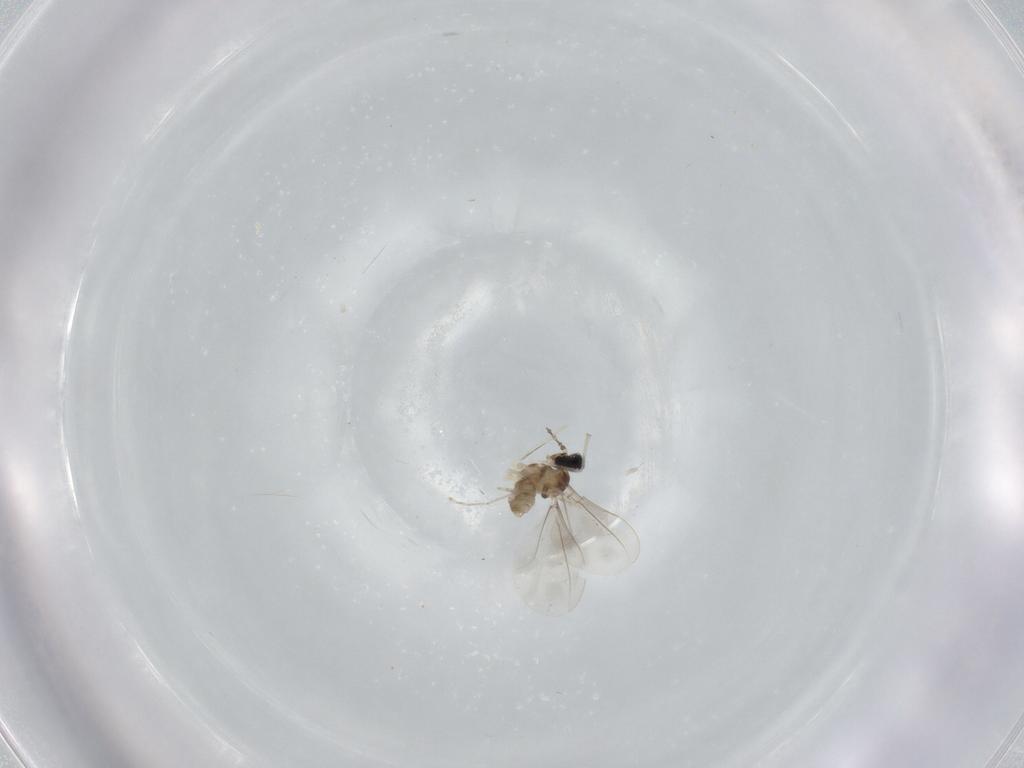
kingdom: Animalia
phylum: Arthropoda
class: Insecta
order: Diptera
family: Cecidomyiidae
